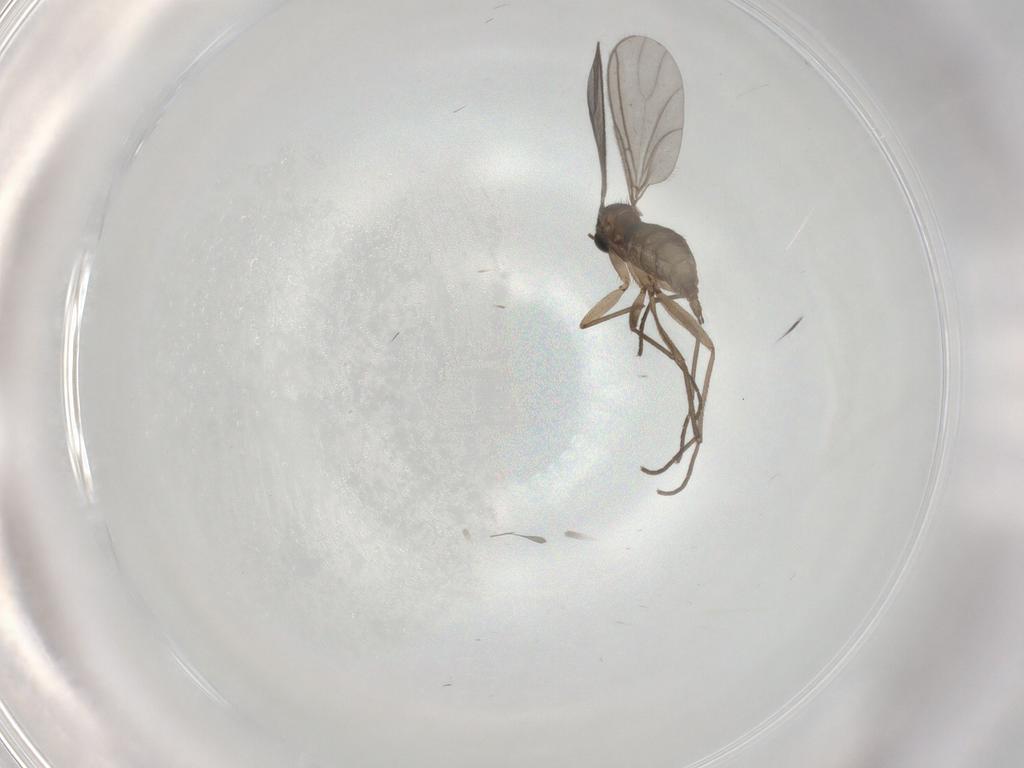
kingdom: Animalia
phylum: Arthropoda
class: Insecta
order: Diptera
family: Sciaridae
